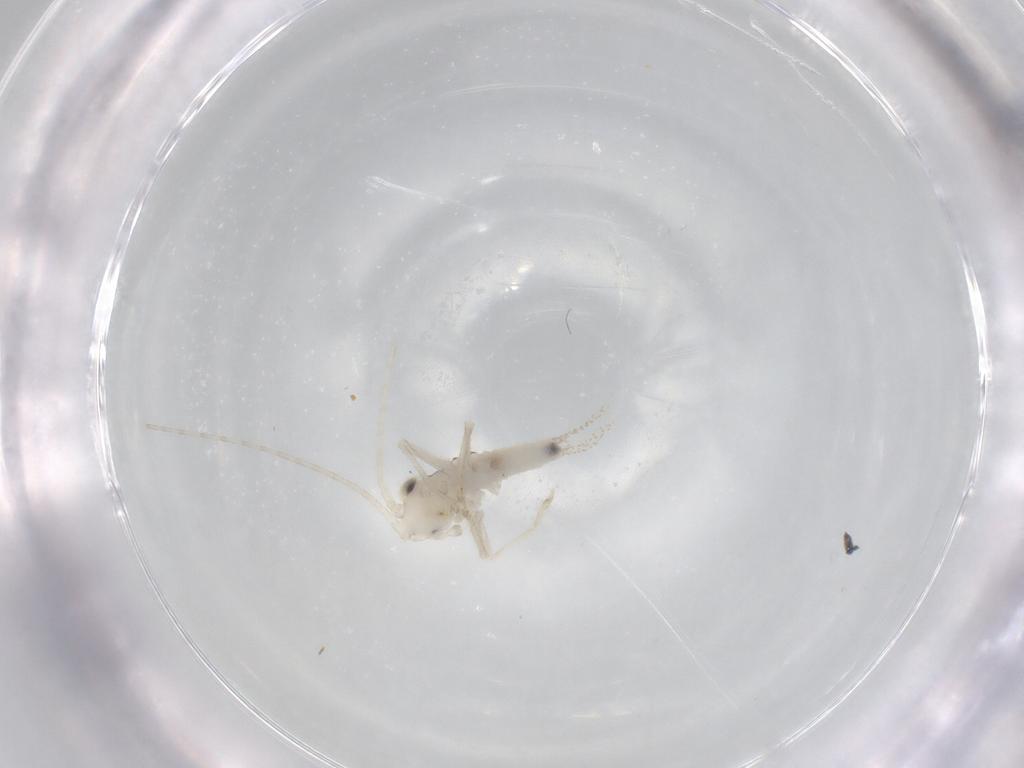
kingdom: Animalia
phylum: Arthropoda
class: Insecta
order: Orthoptera
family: Trigonidiidae
